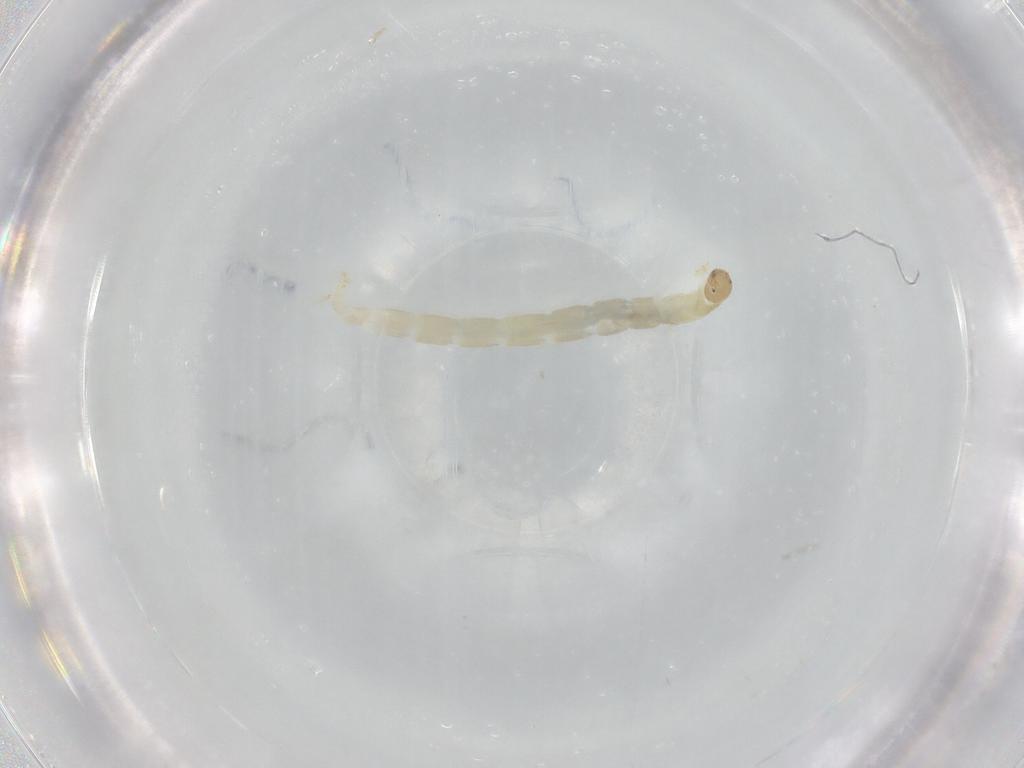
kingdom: Animalia
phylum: Arthropoda
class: Insecta
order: Diptera
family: Chironomidae
